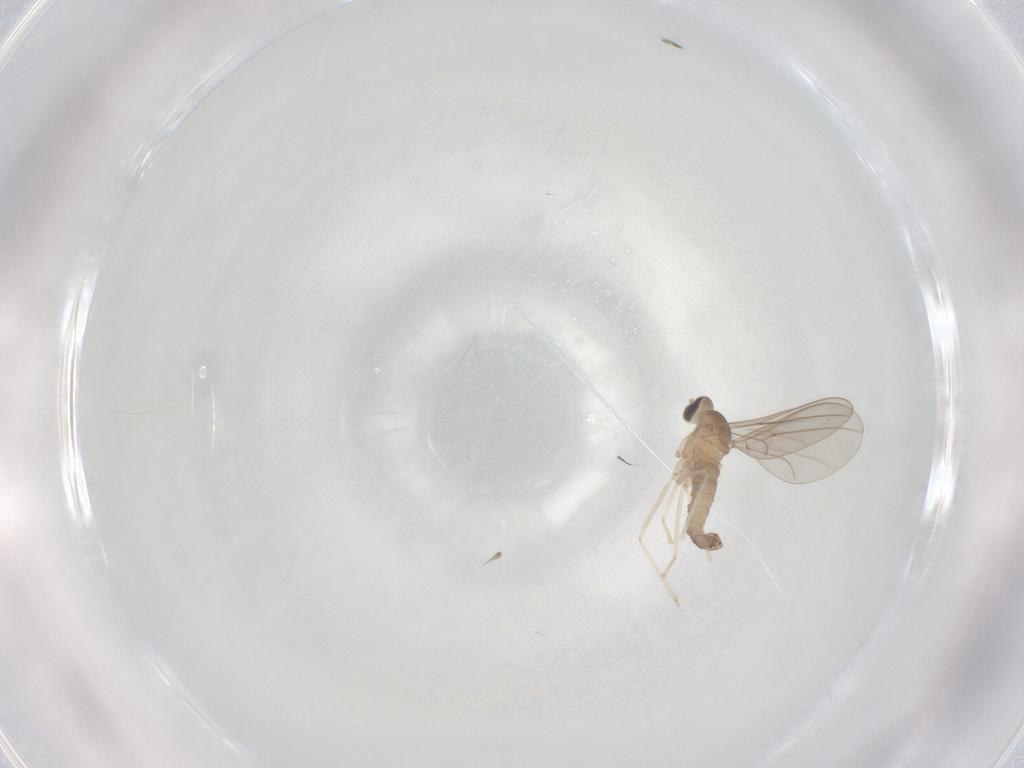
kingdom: Animalia
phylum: Arthropoda
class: Insecta
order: Diptera
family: Cecidomyiidae
